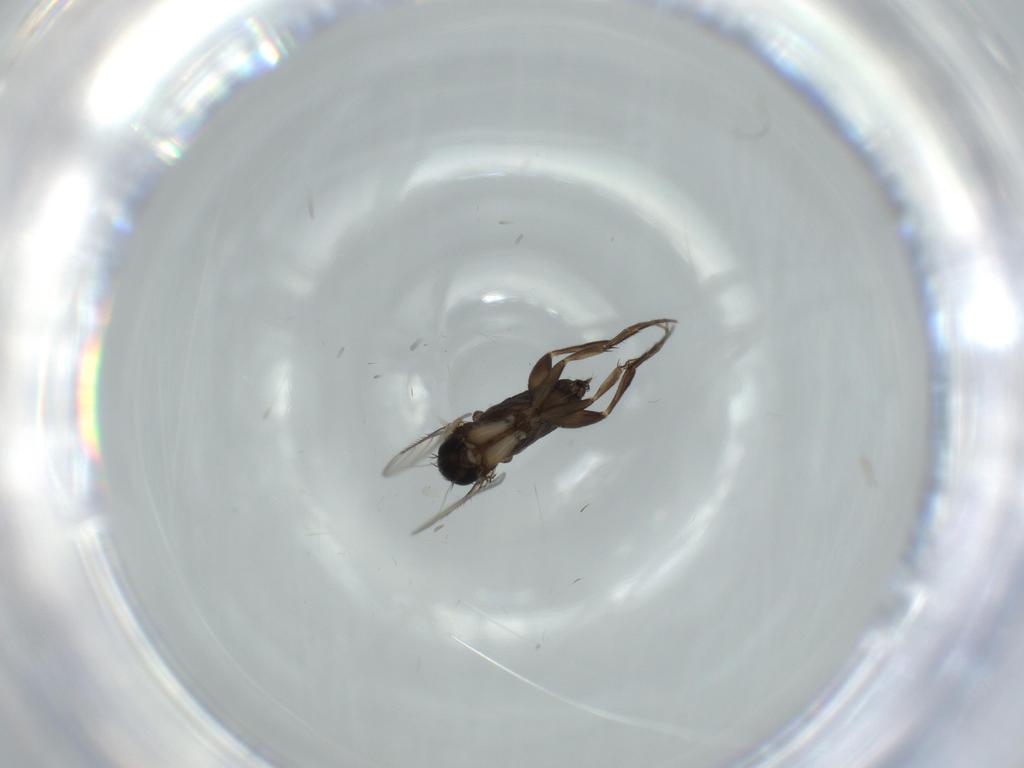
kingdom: Animalia
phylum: Arthropoda
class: Insecta
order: Diptera
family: Phoridae
